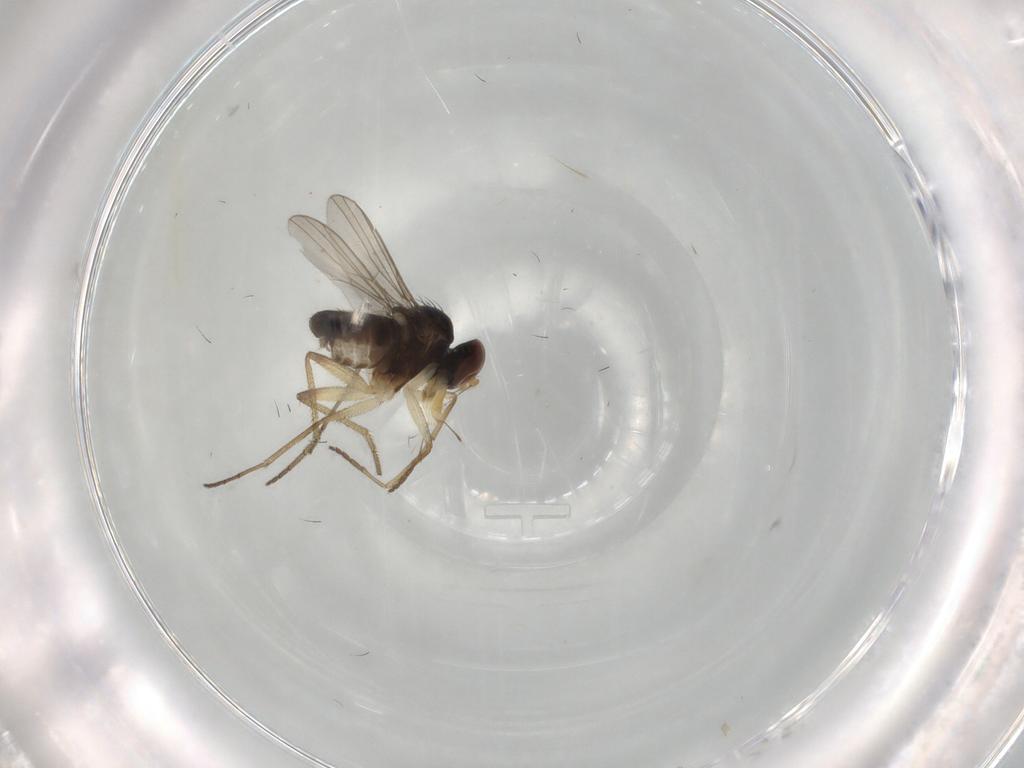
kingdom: Animalia
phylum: Arthropoda
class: Insecta
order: Diptera
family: Dolichopodidae
